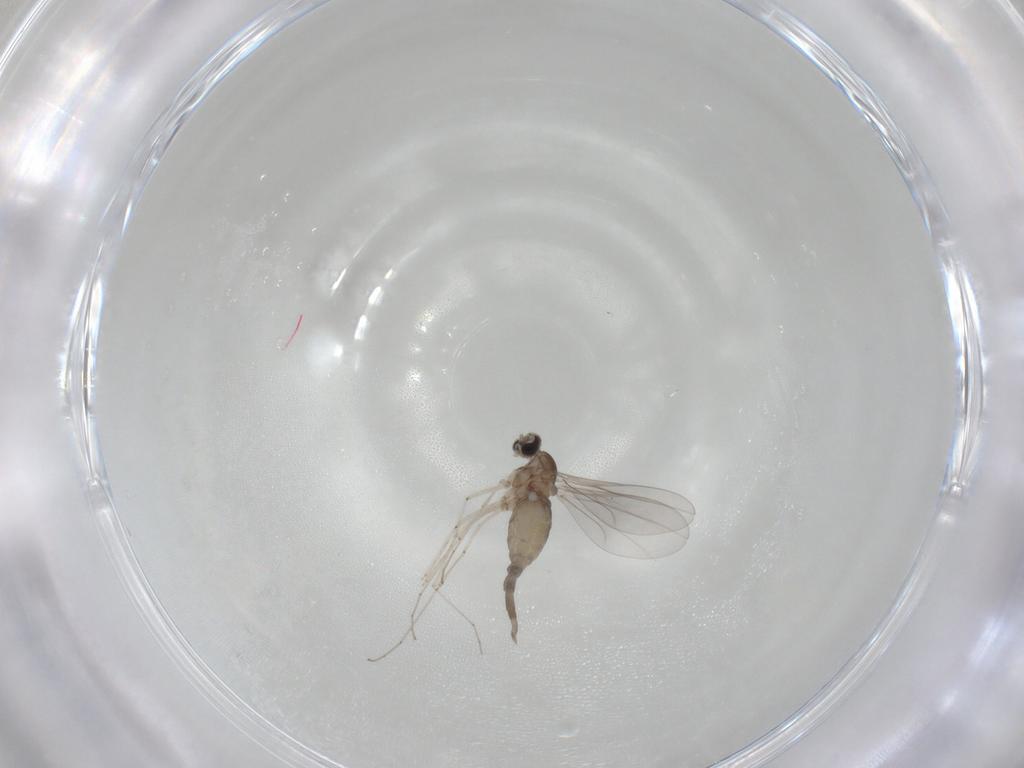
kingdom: Animalia
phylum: Arthropoda
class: Insecta
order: Diptera
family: Cecidomyiidae
